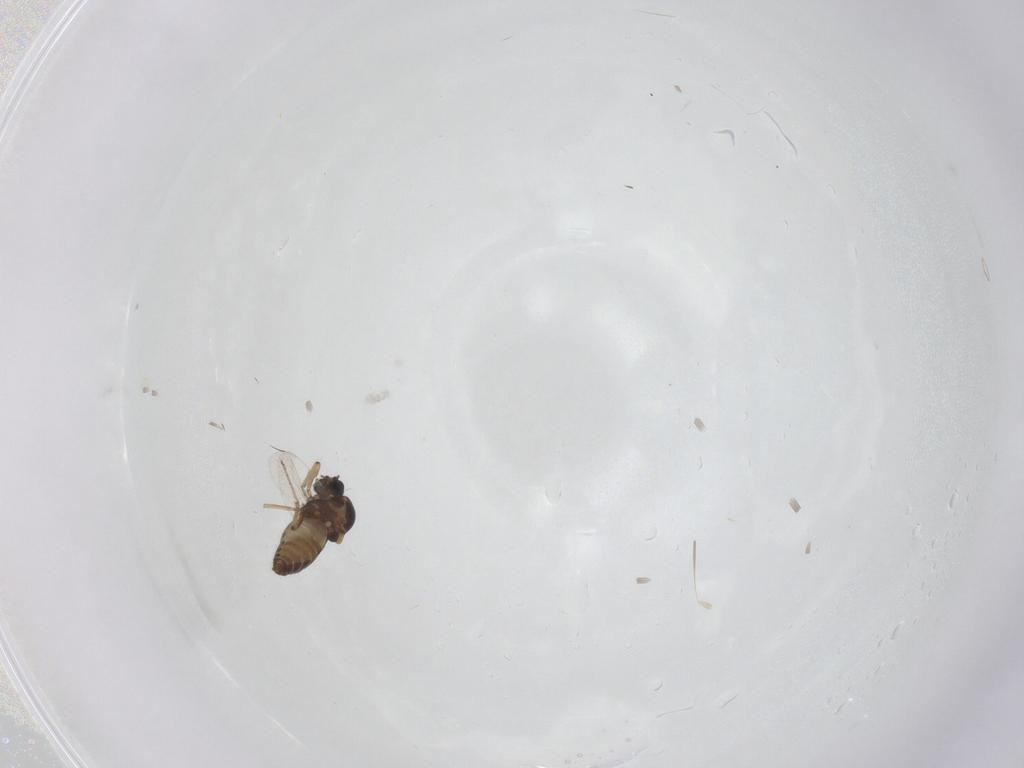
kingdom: Animalia
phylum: Arthropoda
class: Insecta
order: Diptera
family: Ceratopogonidae
